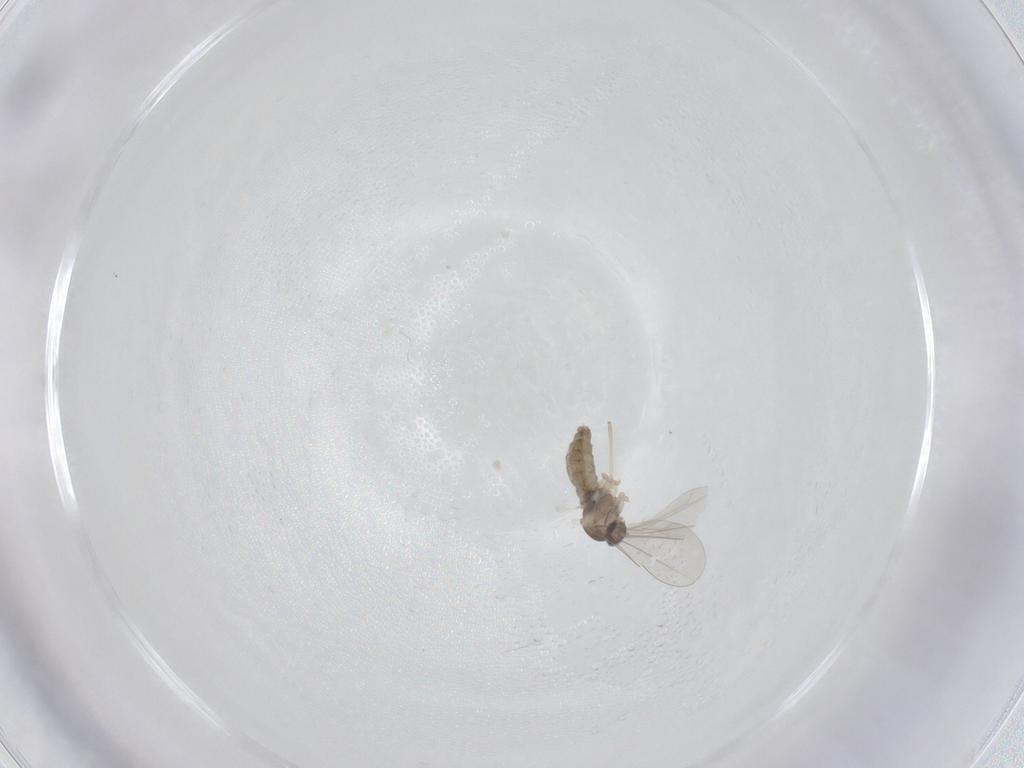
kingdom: Animalia
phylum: Arthropoda
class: Insecta
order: Diptera
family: Cecidomyiidae
